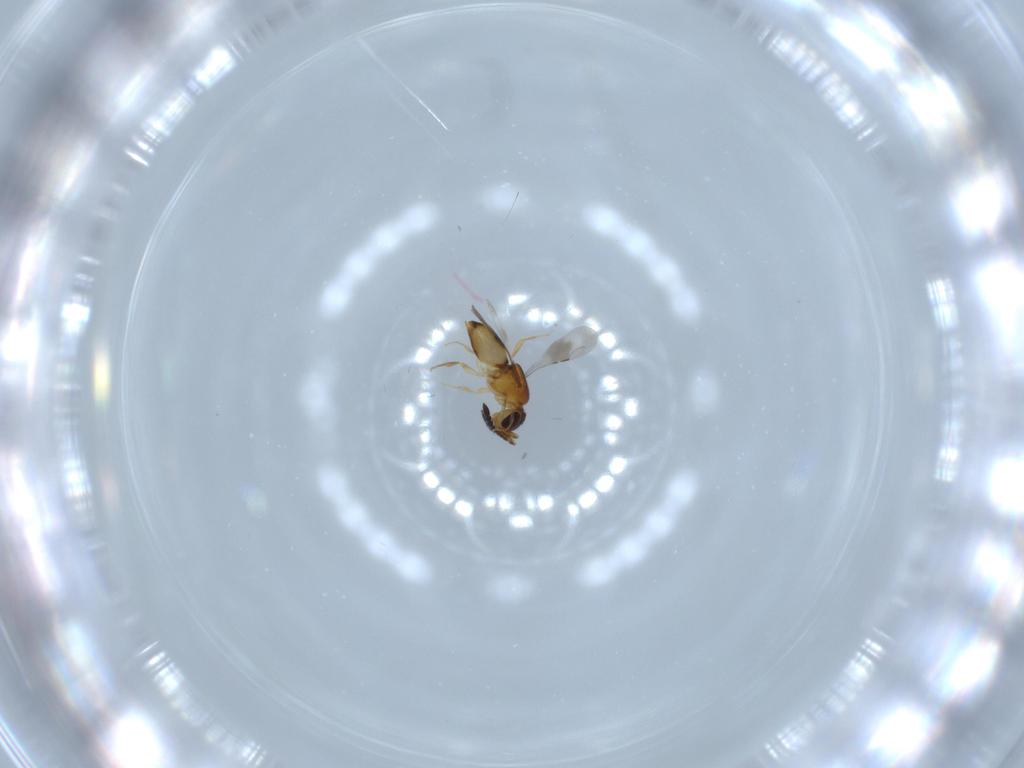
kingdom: Animalia
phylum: Arthropoda
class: Insecta
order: Hymenoptera
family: Ceraphronidae
